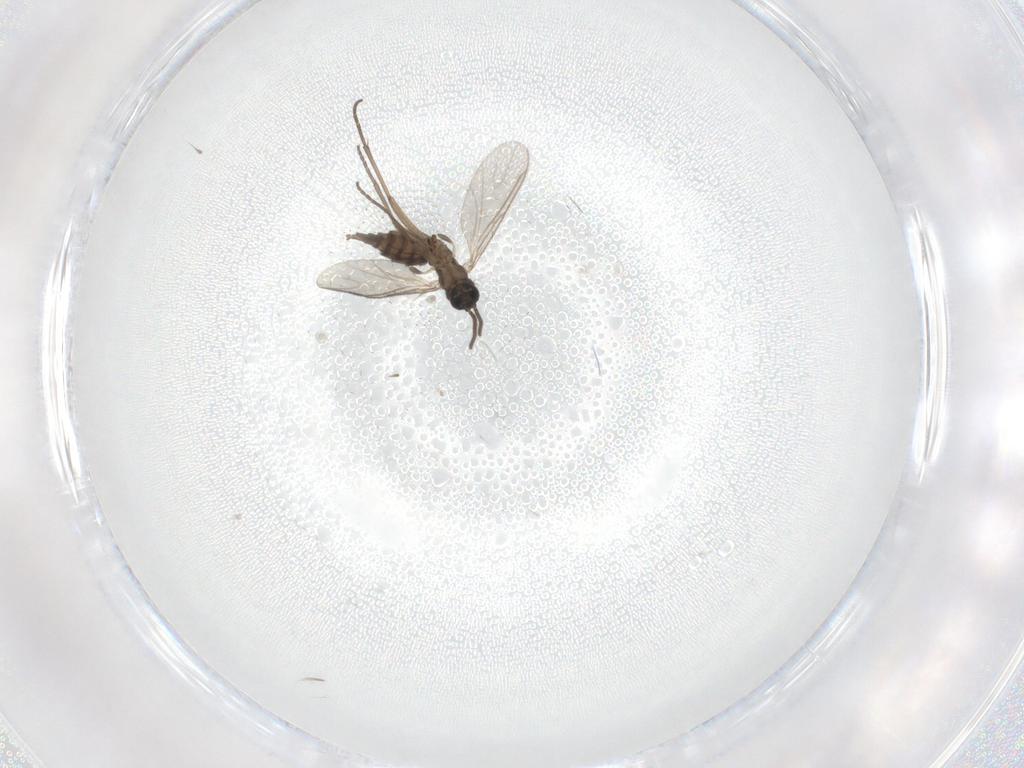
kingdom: Animalia
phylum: Arthropoda
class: Insecta
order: Diptera
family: Sciaridae
